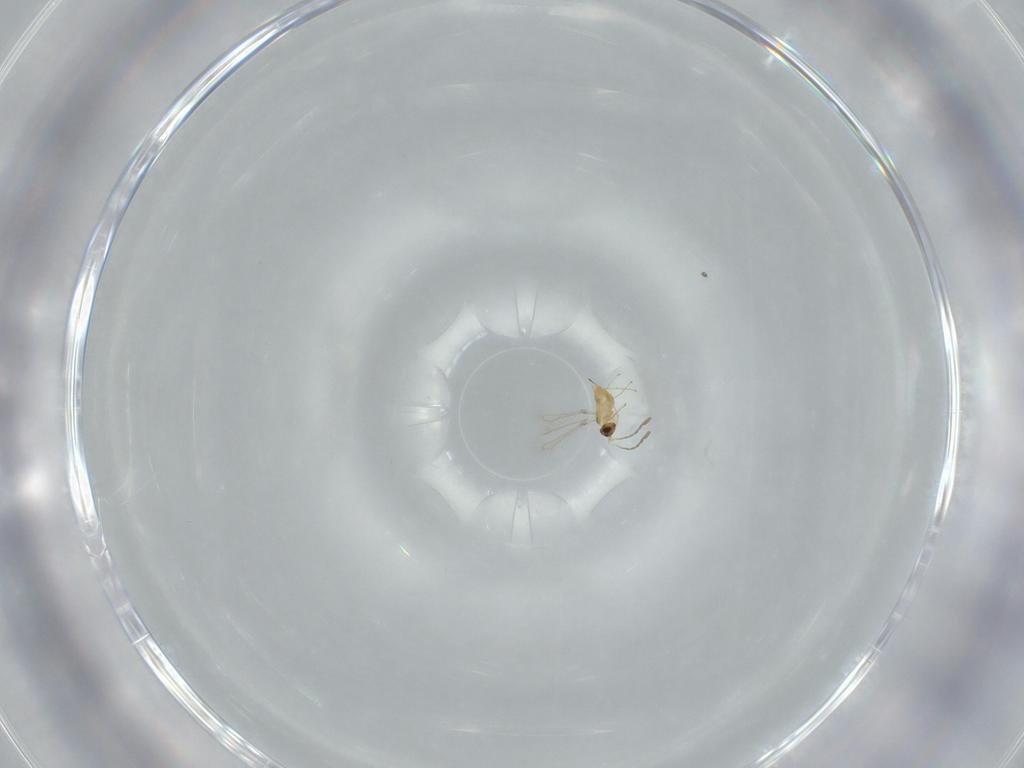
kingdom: Animalia
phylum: Arthropoda
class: Insecta
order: Hymenoptera
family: Mymaridae
